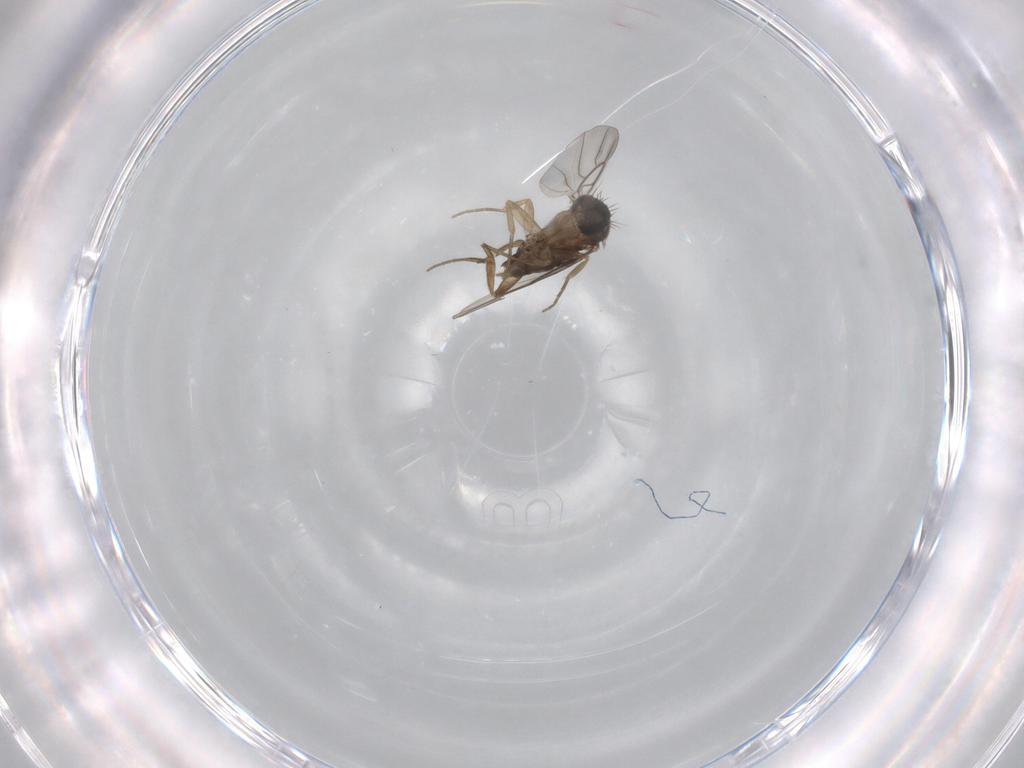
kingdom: Animalia
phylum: Arthropoda
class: Insecta
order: Diptera
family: Phoridae
